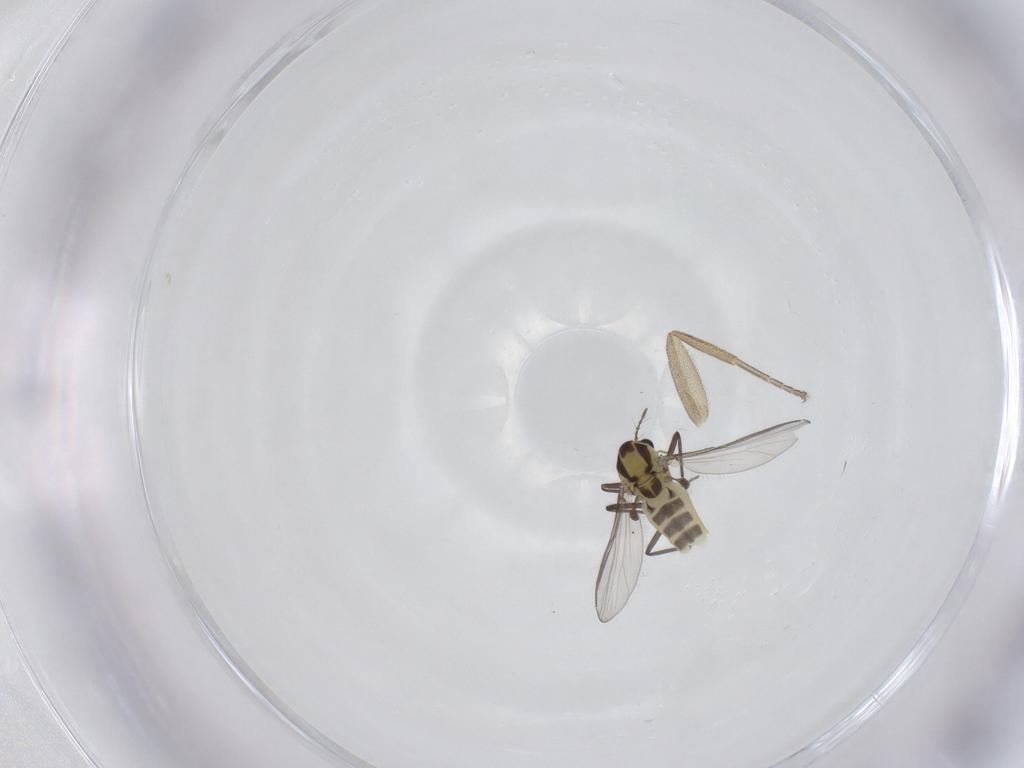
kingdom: Animalia
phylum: Arthropoda
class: Insecta
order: Diptera
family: Chironomidae
